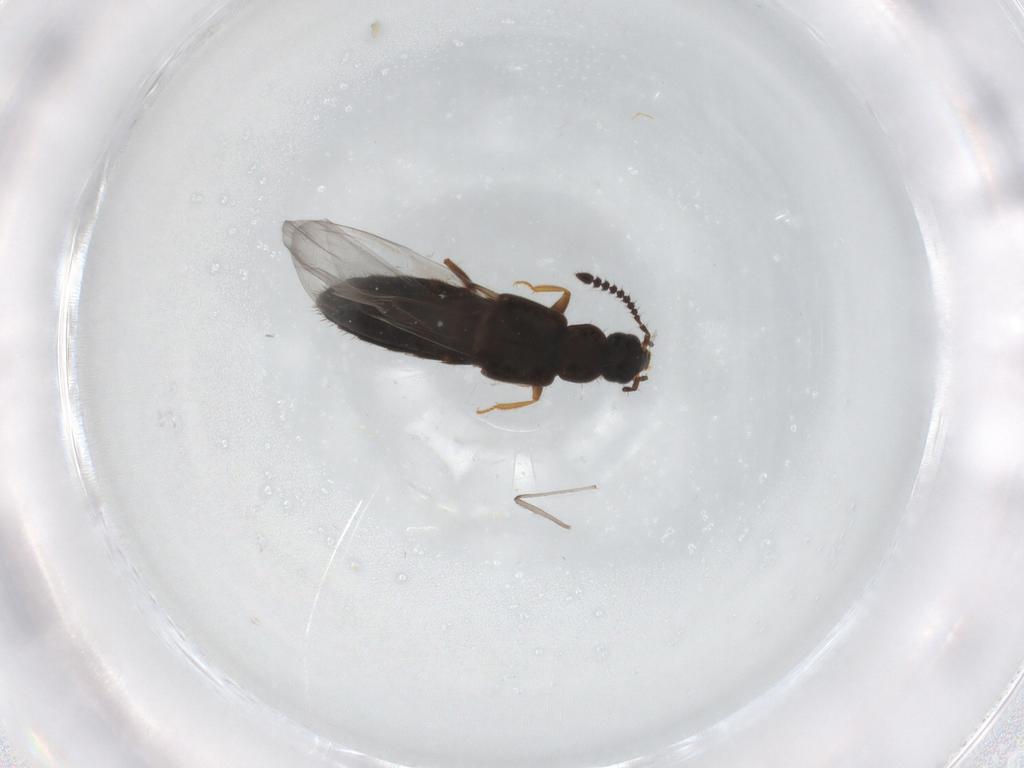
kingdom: Animalia
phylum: Arthropoda
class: Insecta
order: Coleoptera
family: Staphylinidae
